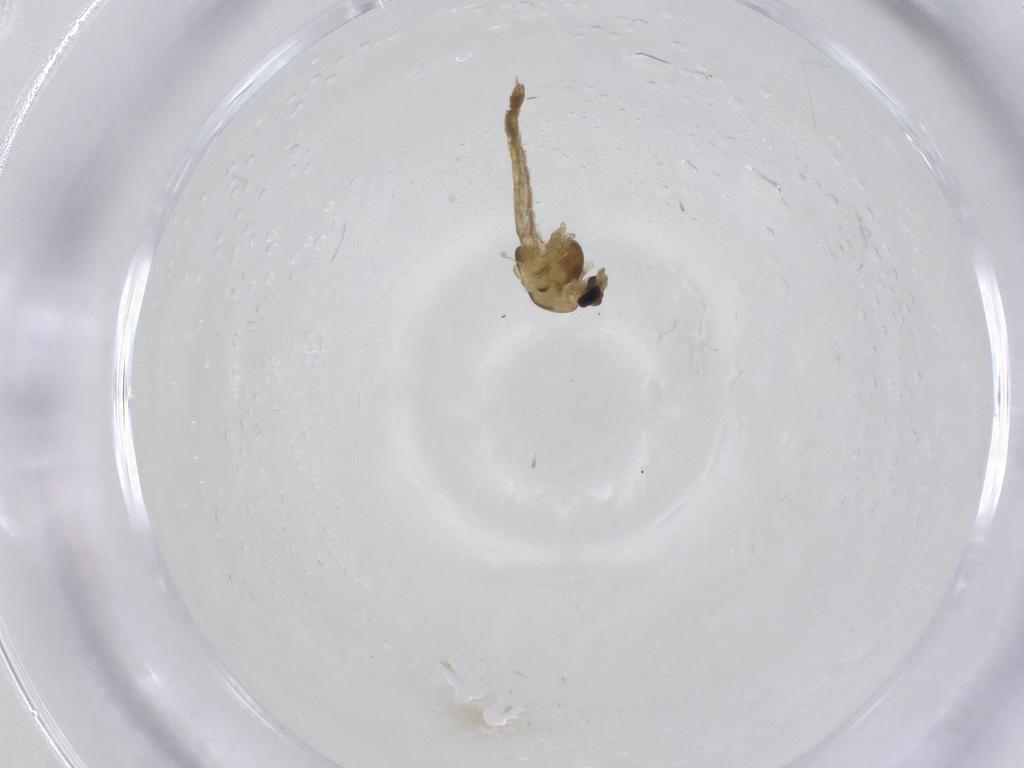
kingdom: Animalia
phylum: Arthropoda
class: Insecta
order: Diptera
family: Chironomidae
